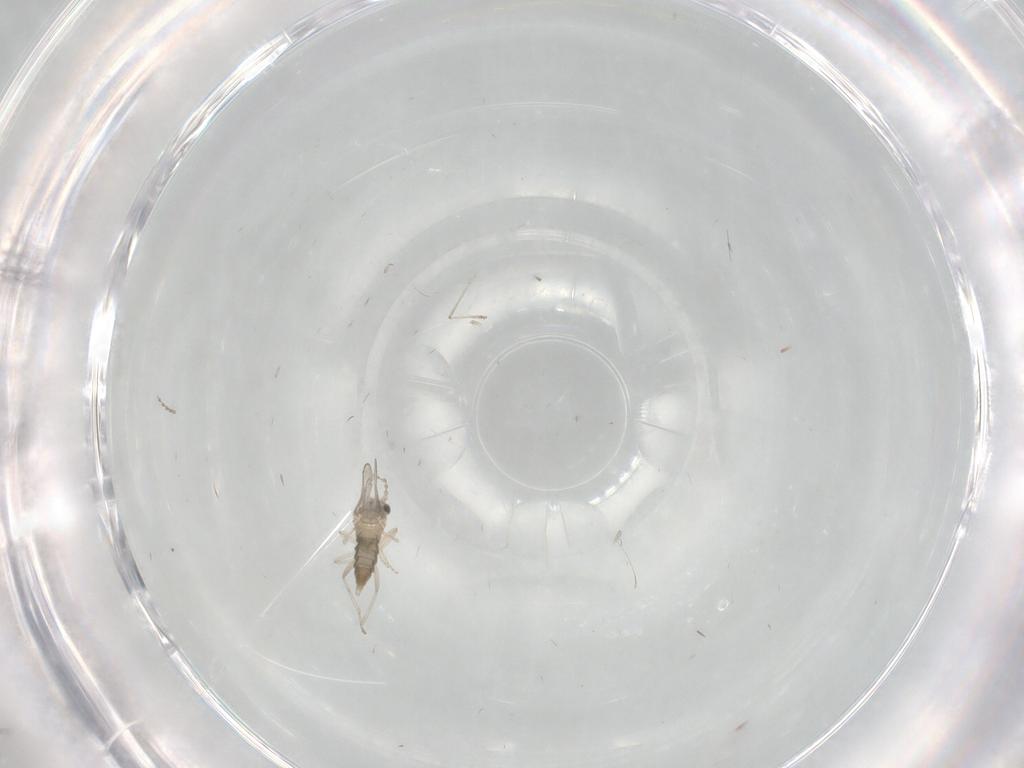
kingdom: Animalia
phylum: Arthropoda
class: Insecta
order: Diptera
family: Cecidomyiidae
